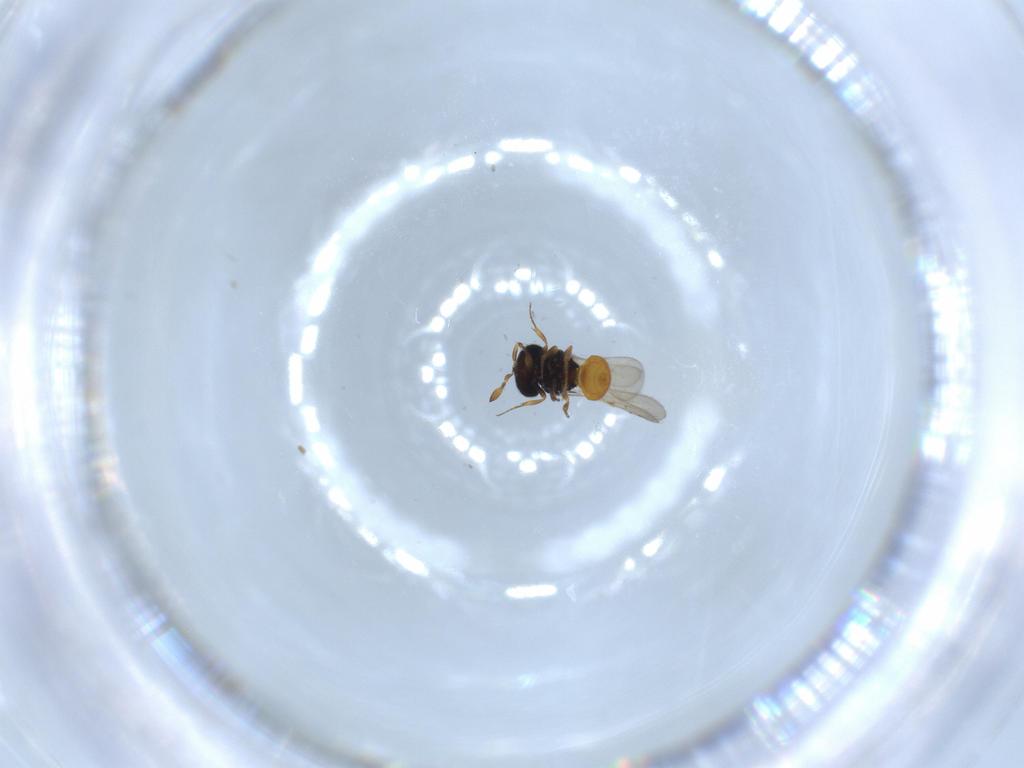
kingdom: Animalia
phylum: Arthropoda
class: Insecta
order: Hymenoptera
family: Scelionidae
